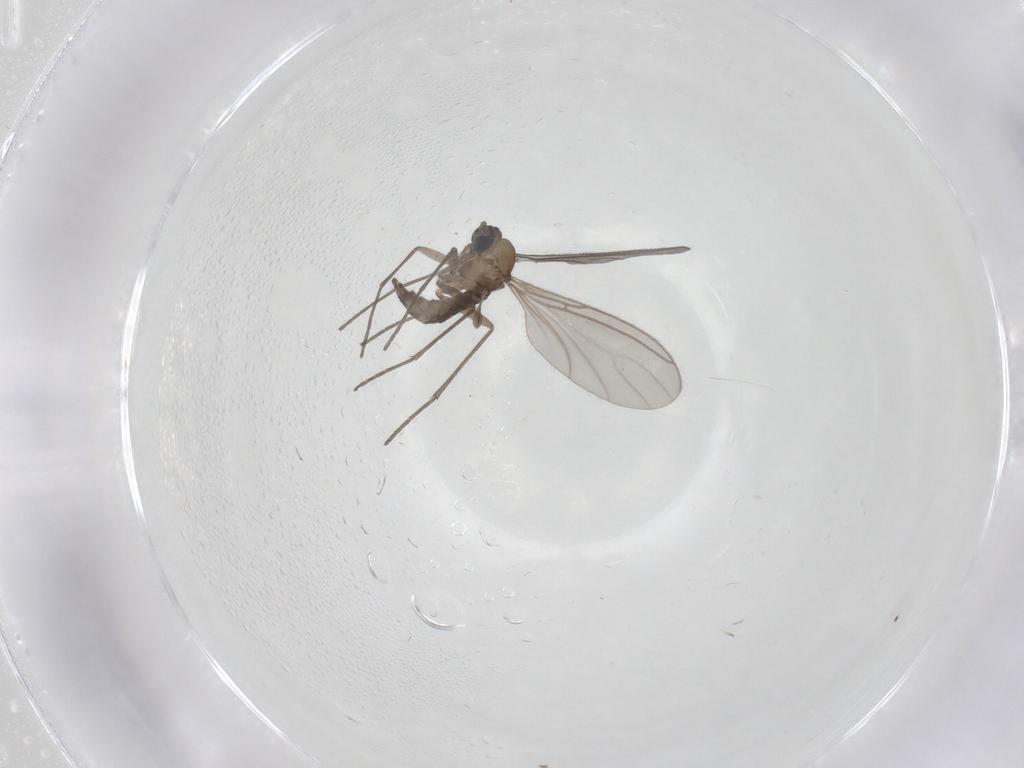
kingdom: Animalia
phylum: Arthropoda
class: Insecta
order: Diptera
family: Sciaridae
